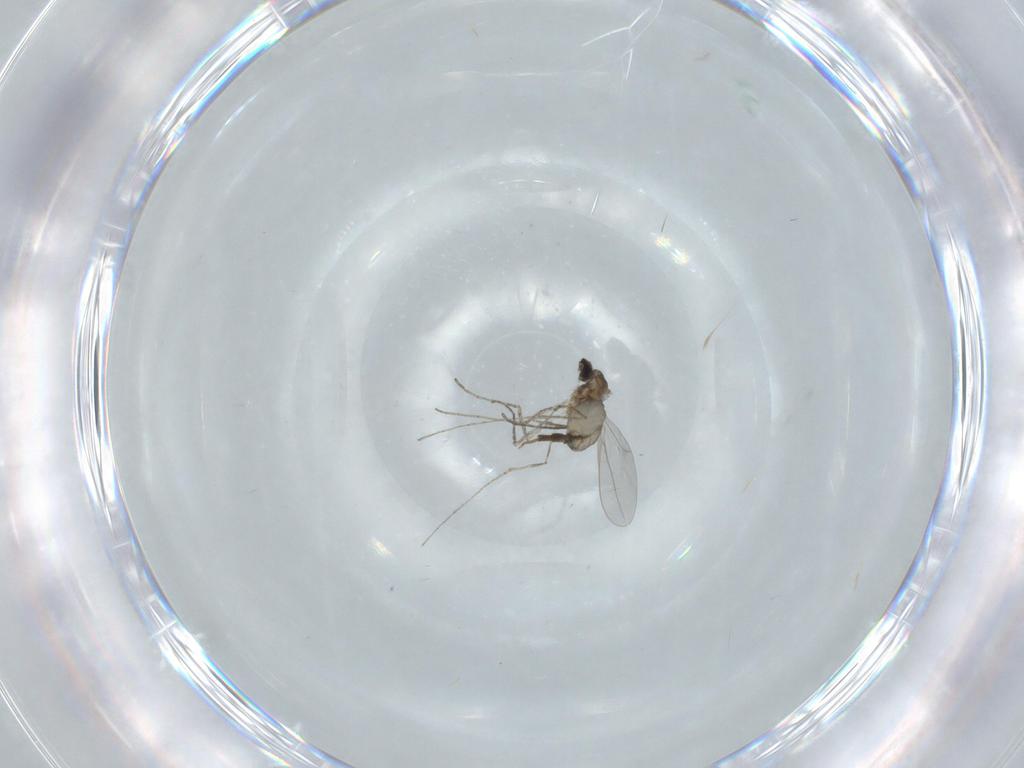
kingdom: Animalia
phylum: Arthropoda
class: Insecta
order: Diptera
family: Cecidomyiidae
